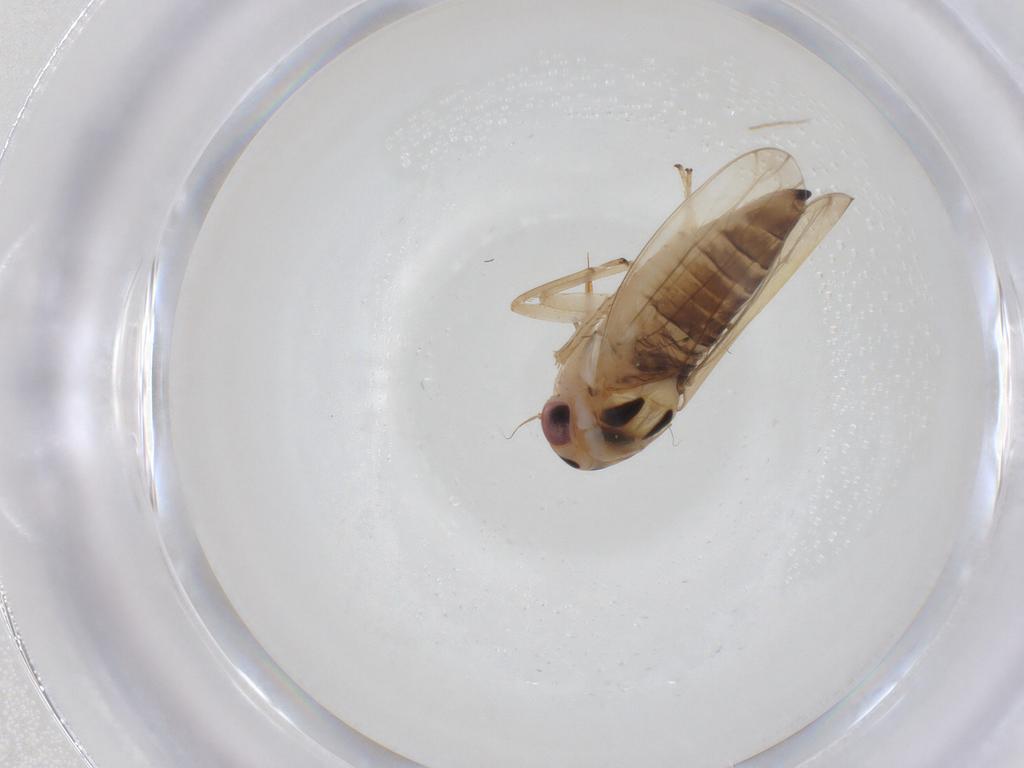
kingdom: Animalia
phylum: Arthropoda
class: Insecta
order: Hemiptera
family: Cicadellidae
